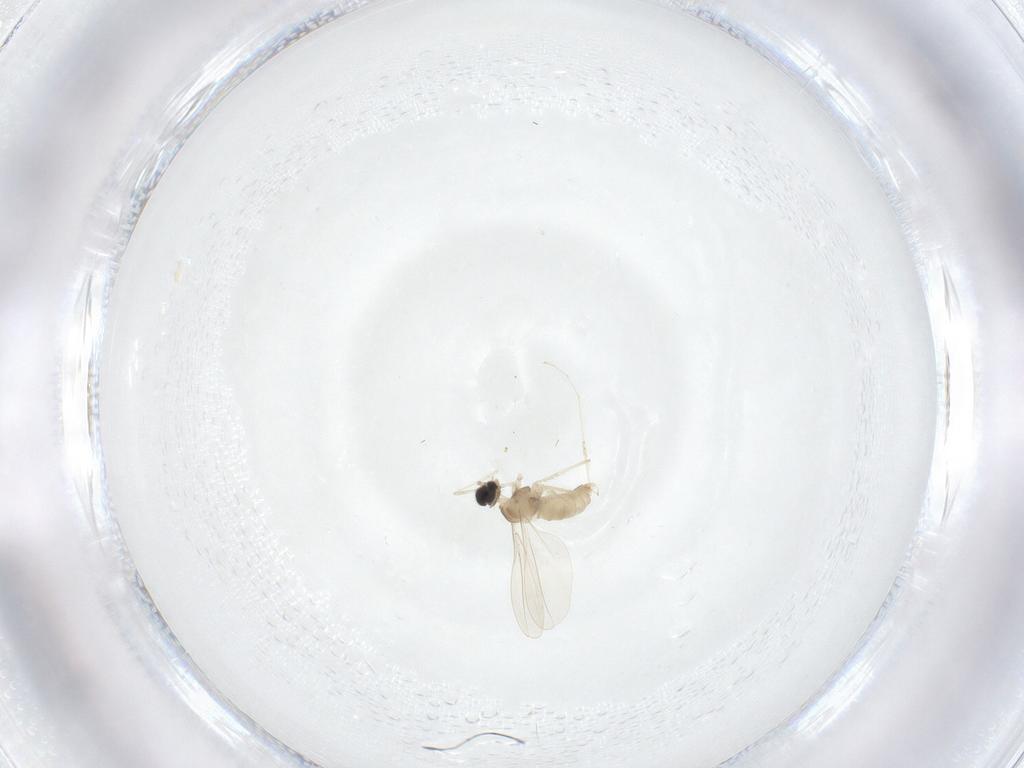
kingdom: Animalia
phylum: Arthropoda
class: Insecta
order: Diptera
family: Cecidomyiidae
